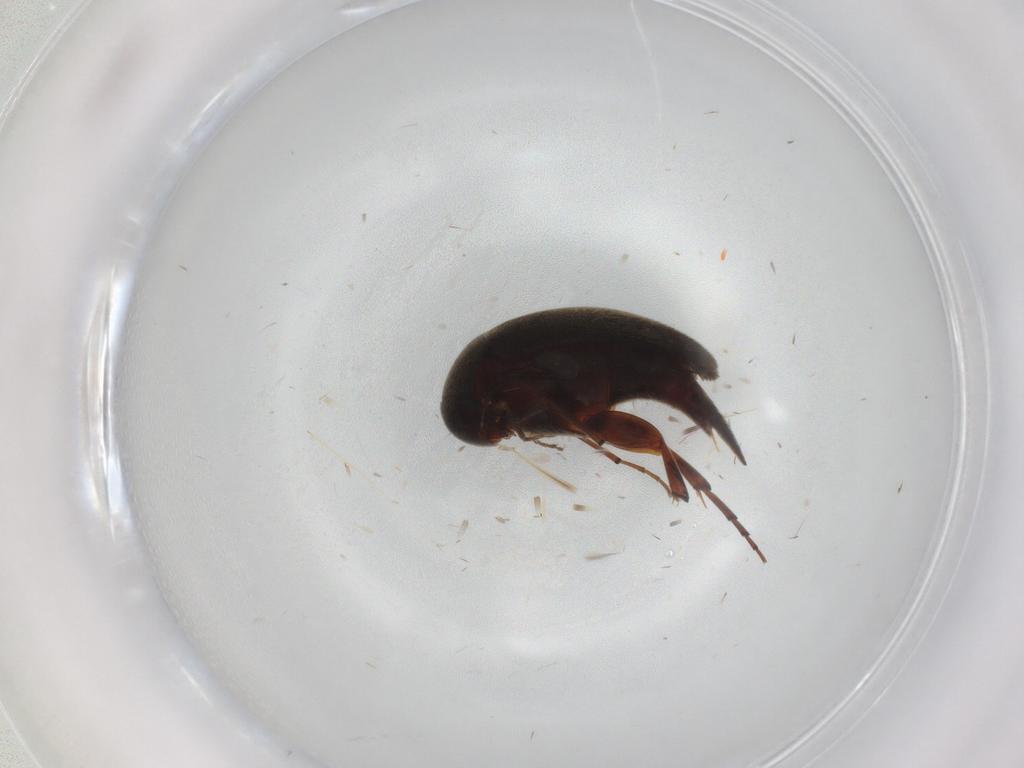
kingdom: Animalia
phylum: Arthropoda
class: Insecta
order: Coleoptera
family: Mordellidae
